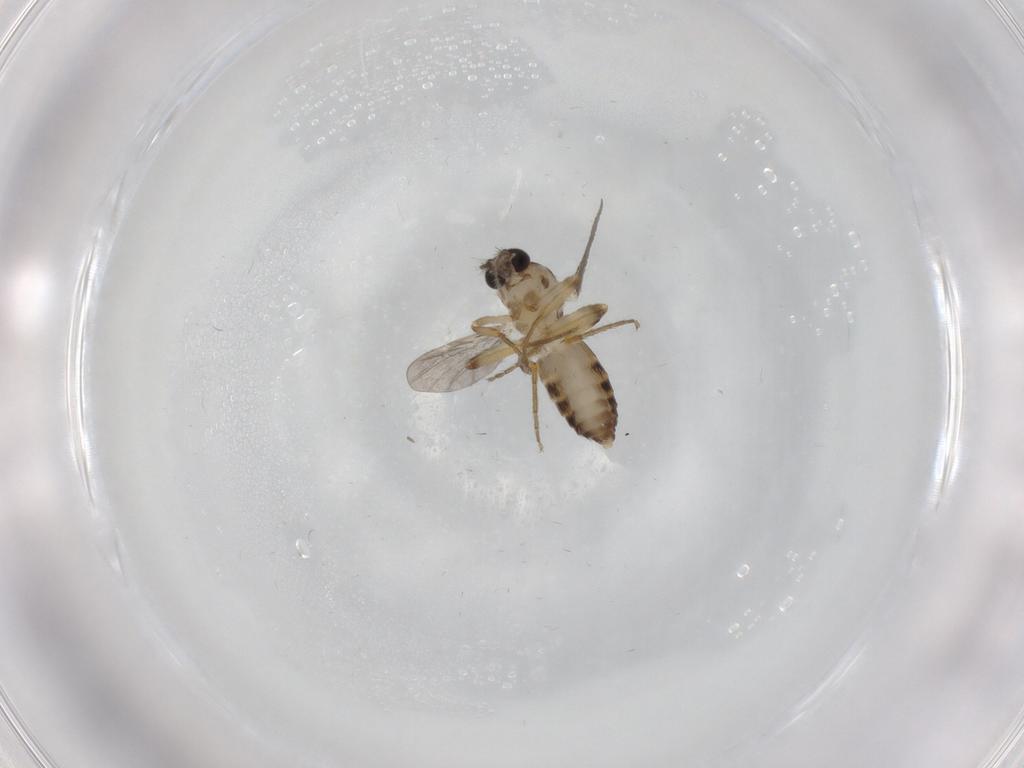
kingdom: Animalia
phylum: Arthropoda
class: Insecta
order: Diptera
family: Ceratopogonidae
